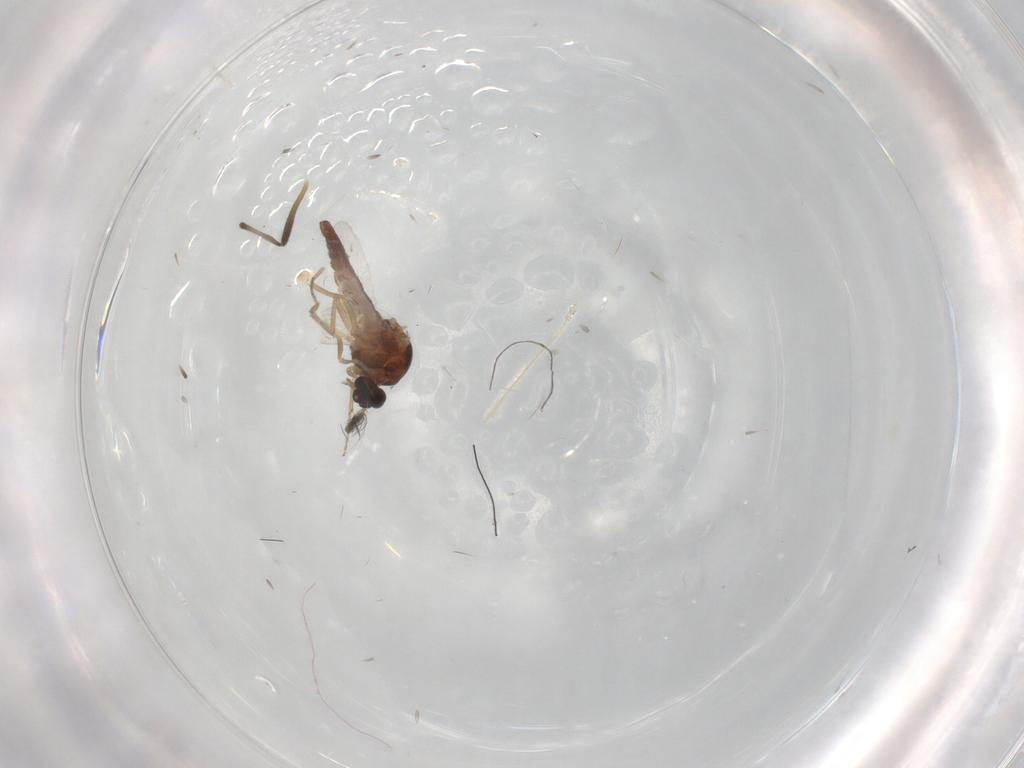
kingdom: Animalia
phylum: Arthropoda
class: Insecta
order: Diptera
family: Ceratopogonidae
